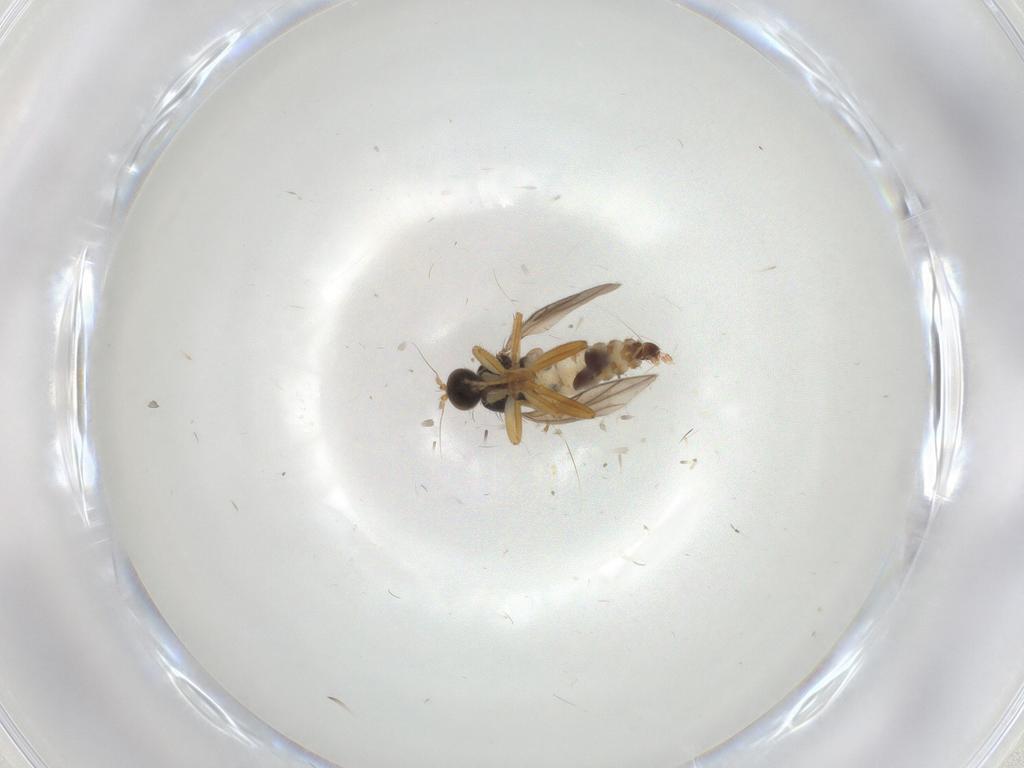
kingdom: Animalia
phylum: Arthropoda
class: Insecta
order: Diptera
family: Hybotidae
